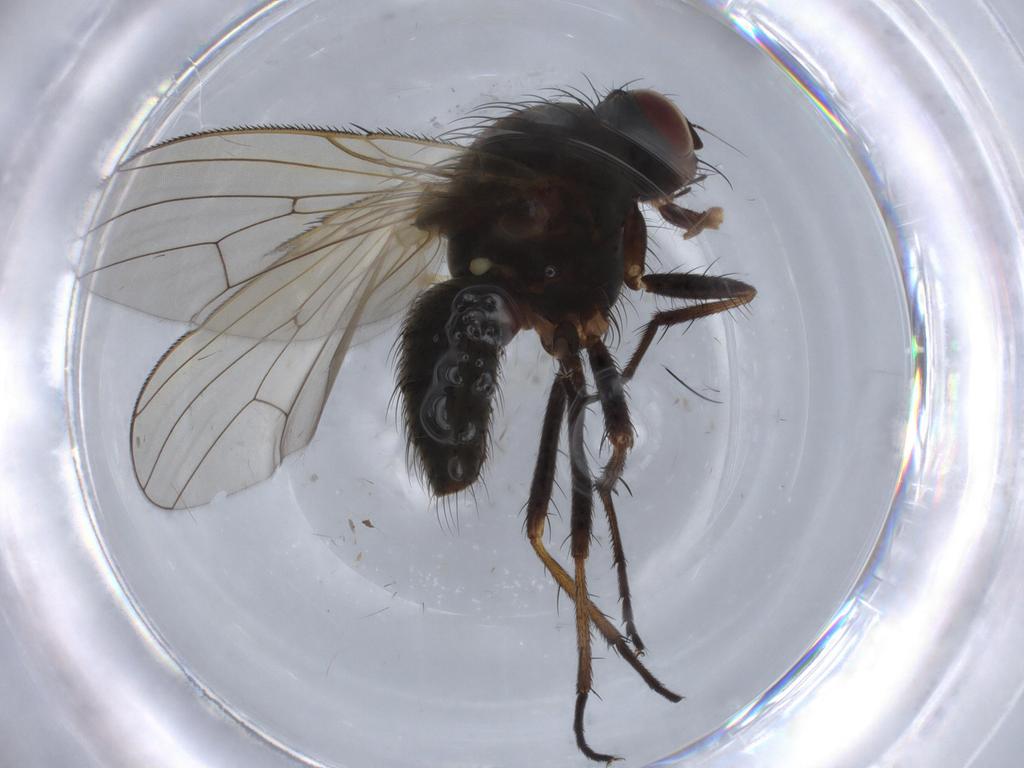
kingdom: Animalia
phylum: Arthropoda
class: Insecta
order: Diptera
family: Anthomyiidae
